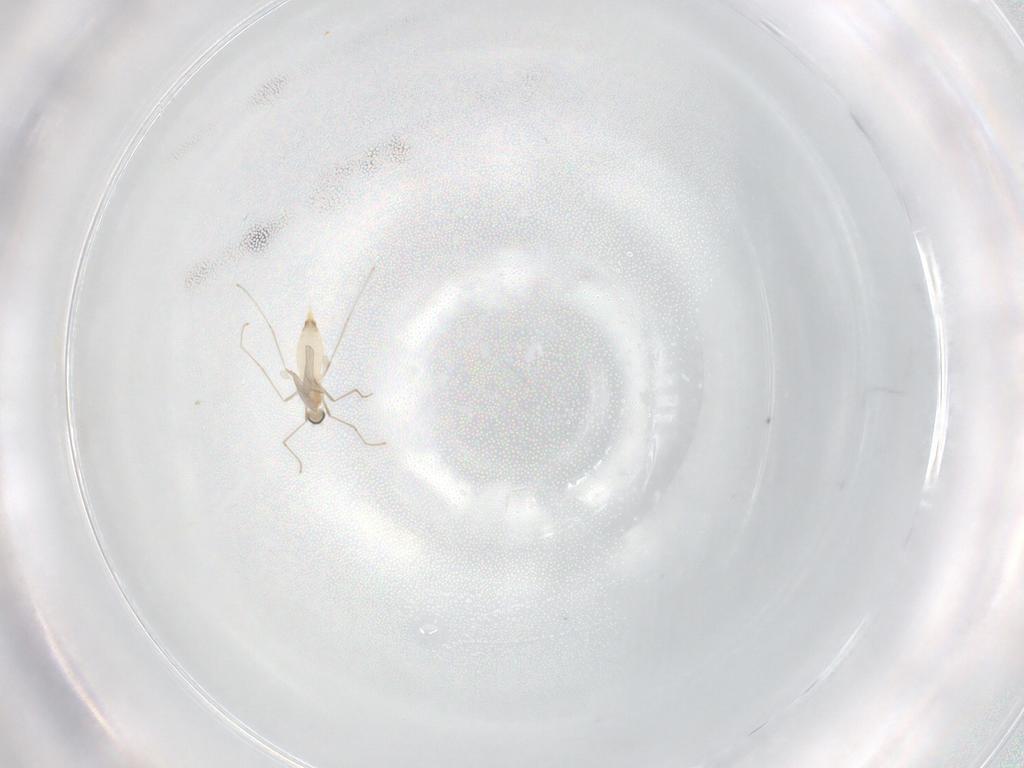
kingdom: Animalia
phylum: Arthropoda
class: Insecta
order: Diptera
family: Cecidomyiidae
